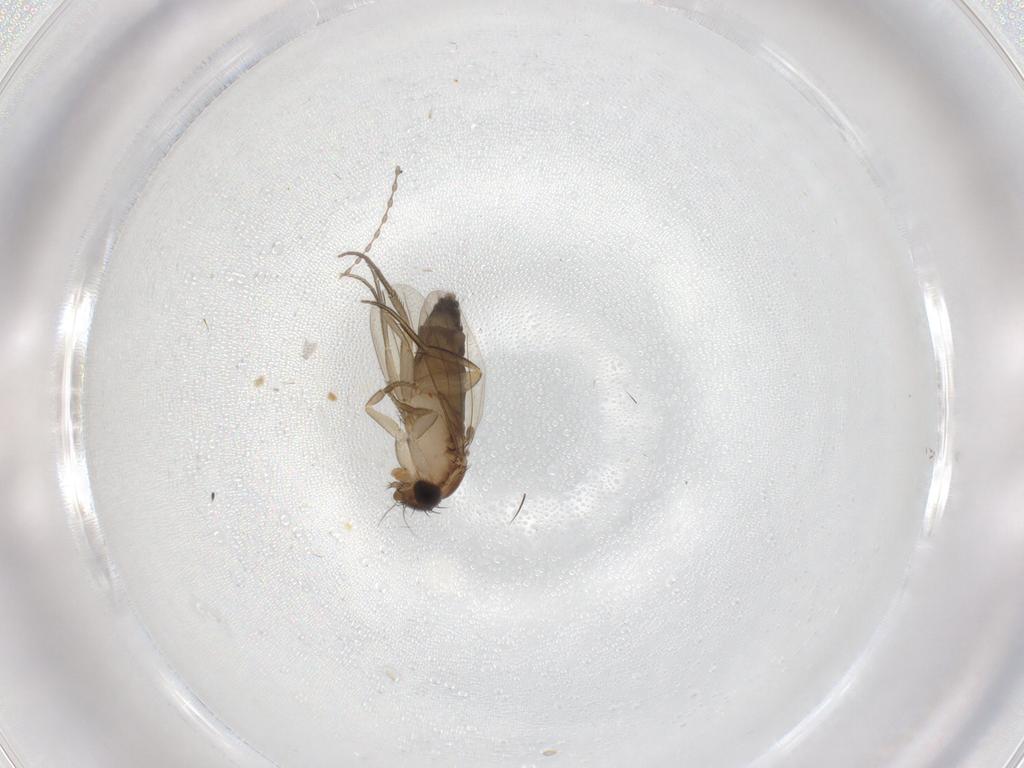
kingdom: Animalia
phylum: Arthropoda
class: Insecta
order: Diptera
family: Phoridae
